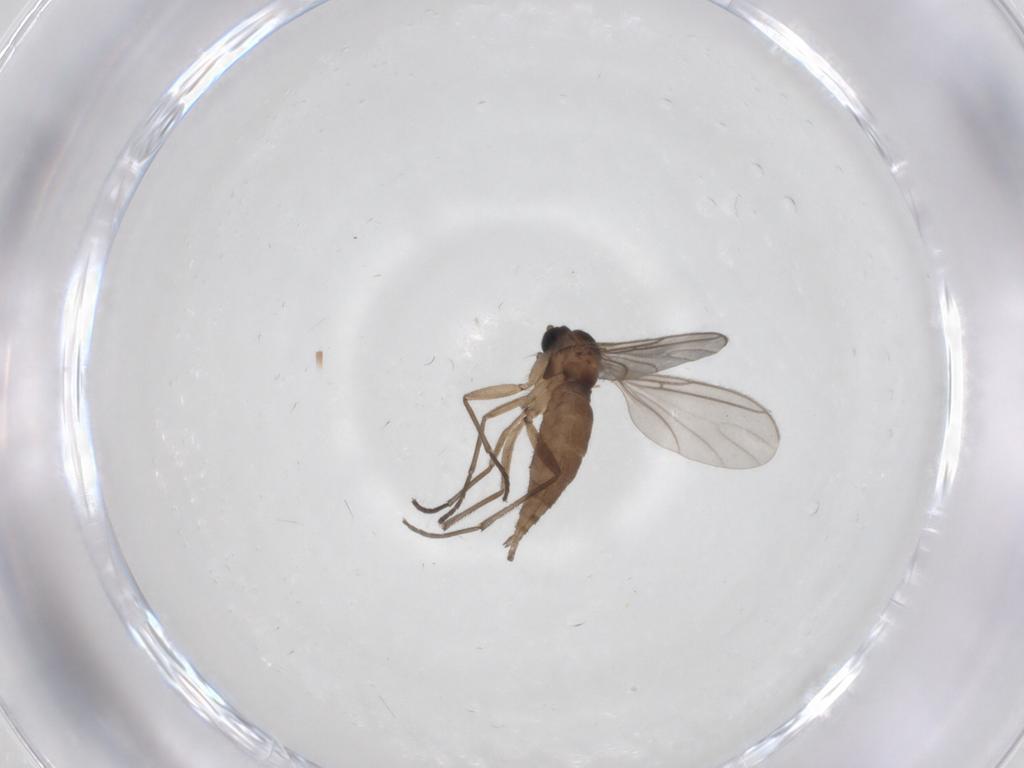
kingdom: Animalia
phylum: Arthropoda
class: Insecta
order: Diptera
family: Sciaridae
